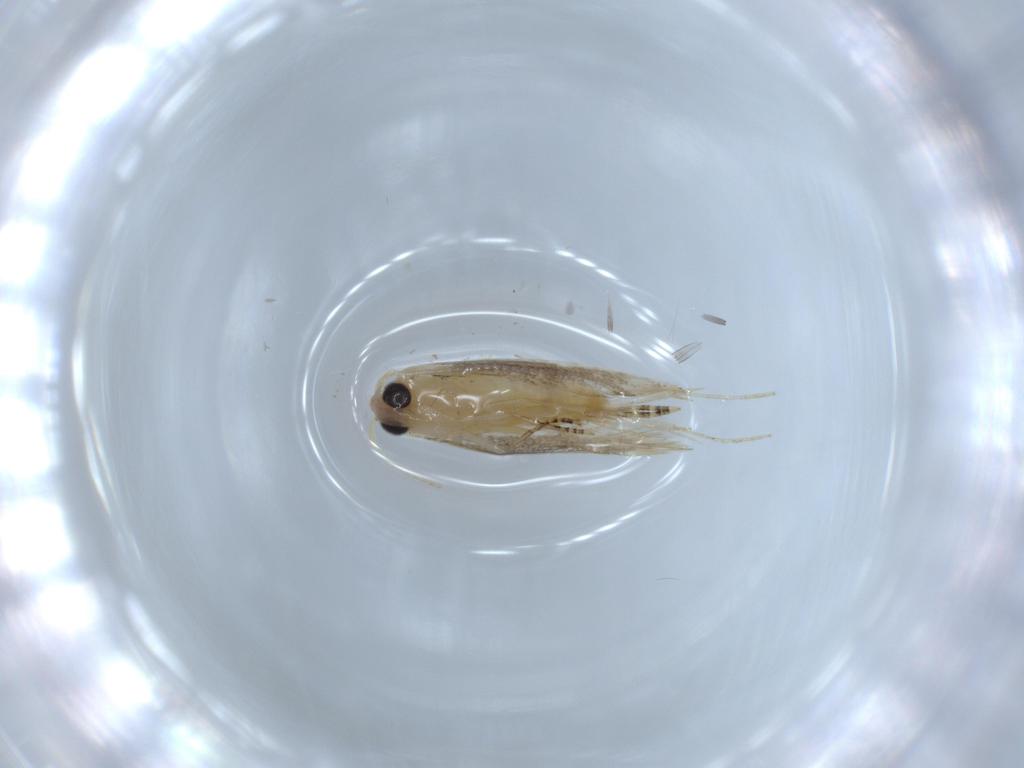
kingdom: Animalia
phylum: Arthropoda
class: Insecta
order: Lepidoptera
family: Bucculatricidae
